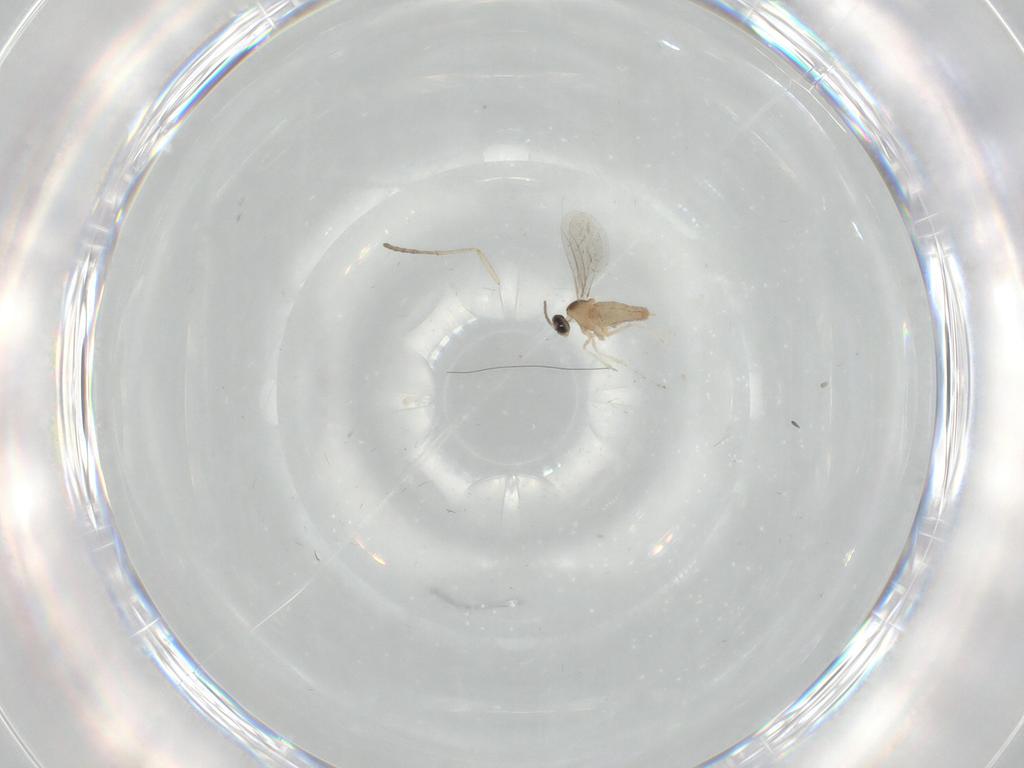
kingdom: Animalia
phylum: Arthropoda
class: Insecta
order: Diptera
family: Cecidomyiidae
